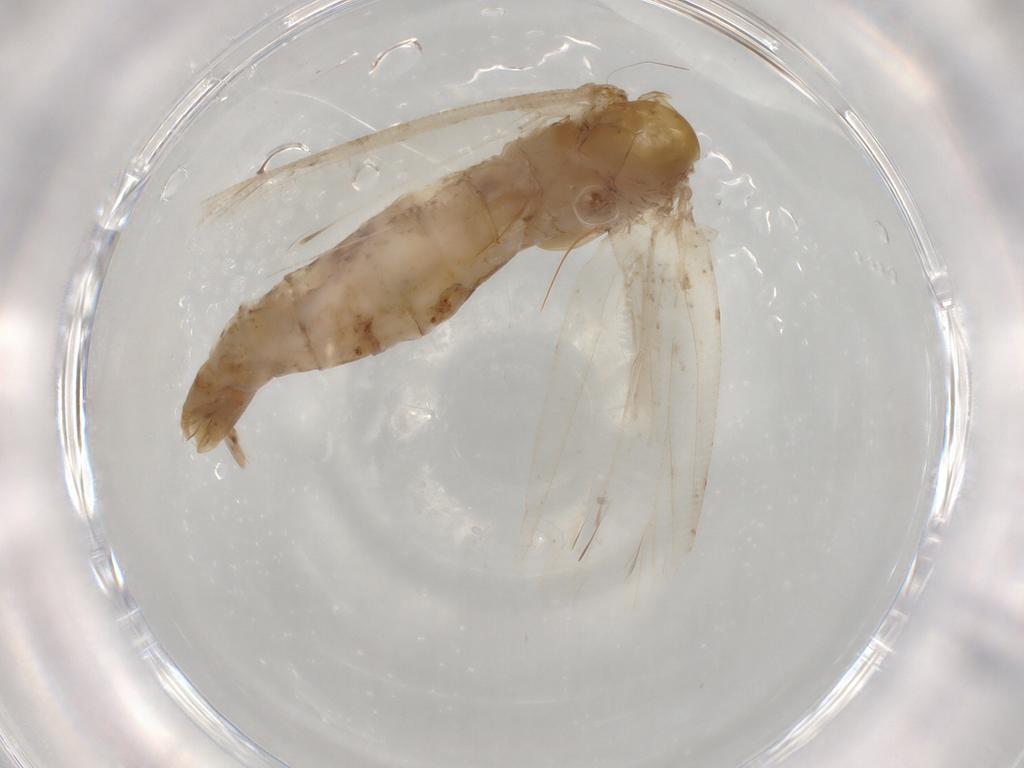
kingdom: Animalia
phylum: Arthropoda
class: Insecta
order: Lepidoptera
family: Tortricidae
